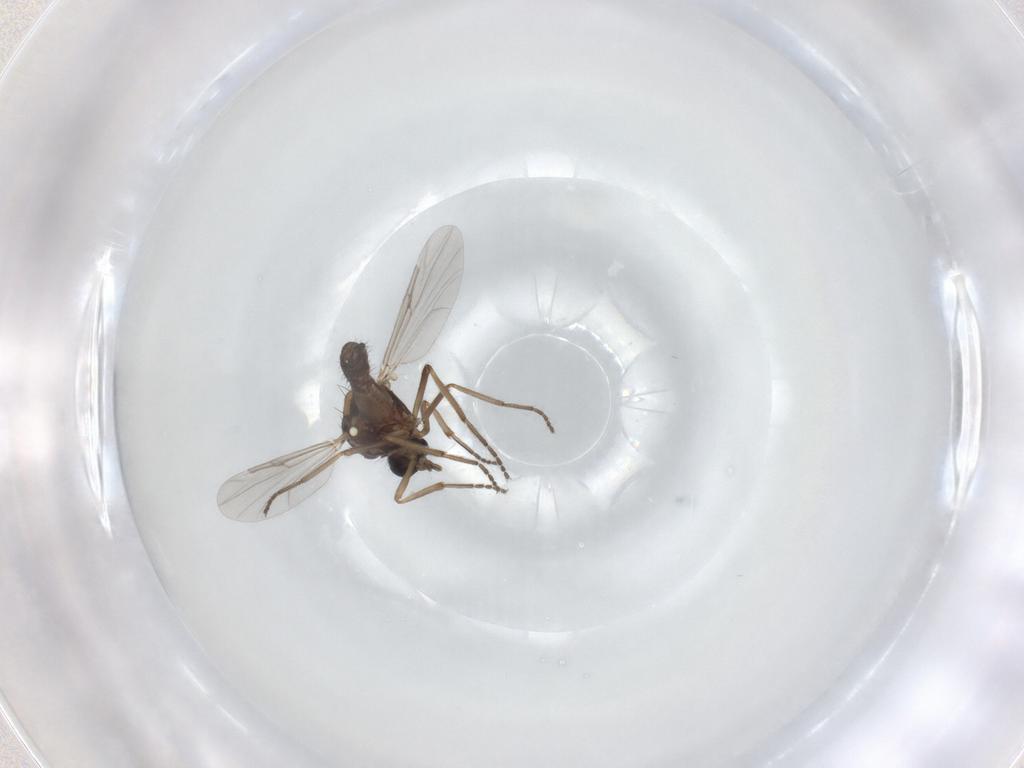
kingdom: Animalia
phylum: Arthropoda
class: Insecta
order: Diptera
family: Ceratopogonidae
